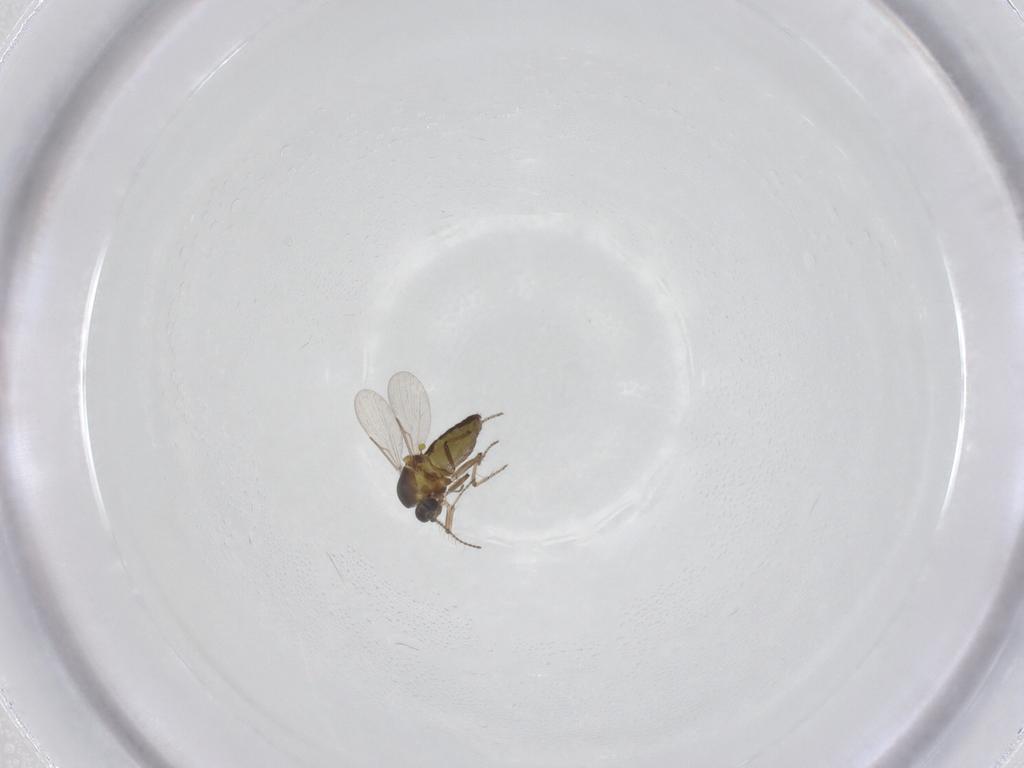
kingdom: Animalia
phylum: Arthropoda
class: Insecta
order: Diptera
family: Ceratopogonidae
